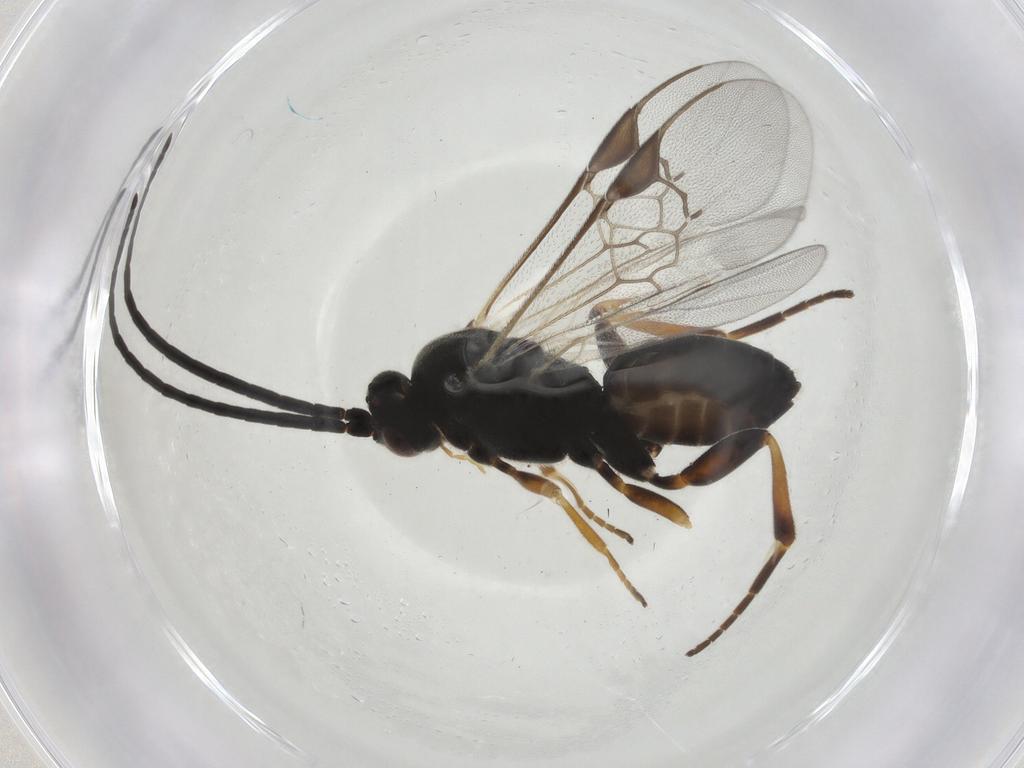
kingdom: Animalia
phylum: Arthropoda
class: Insecta
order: Hymenoptera
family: Braconidae
